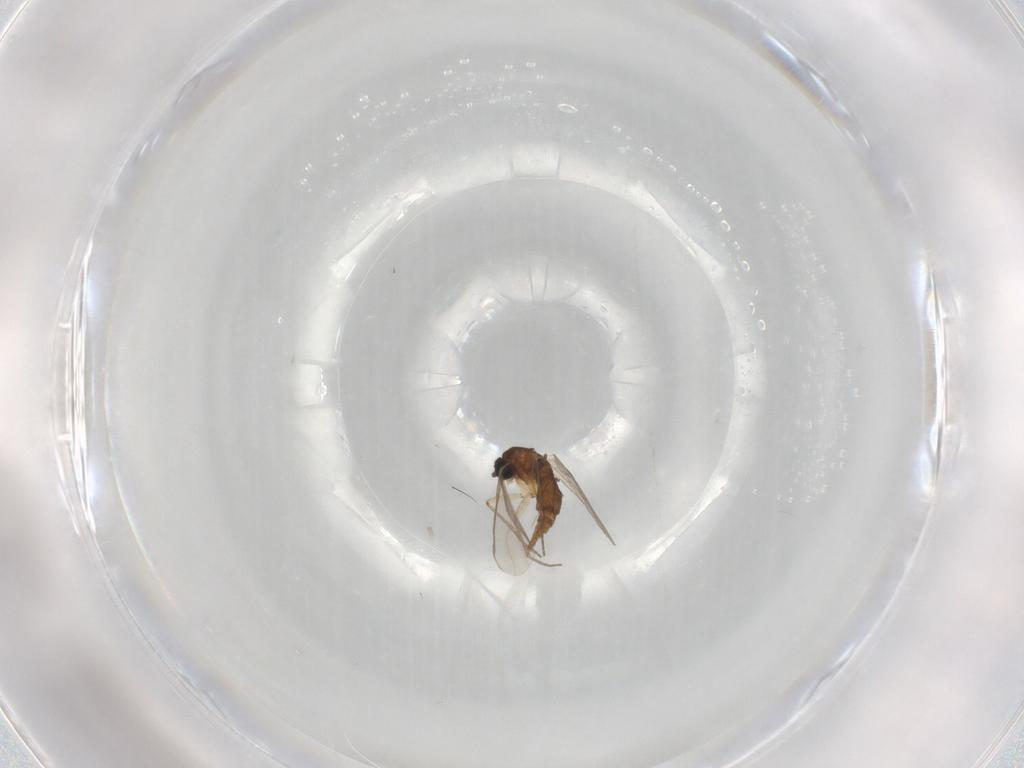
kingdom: Animalia
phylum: Arthropoda
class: Insecta
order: Diptera
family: Sciaridae
